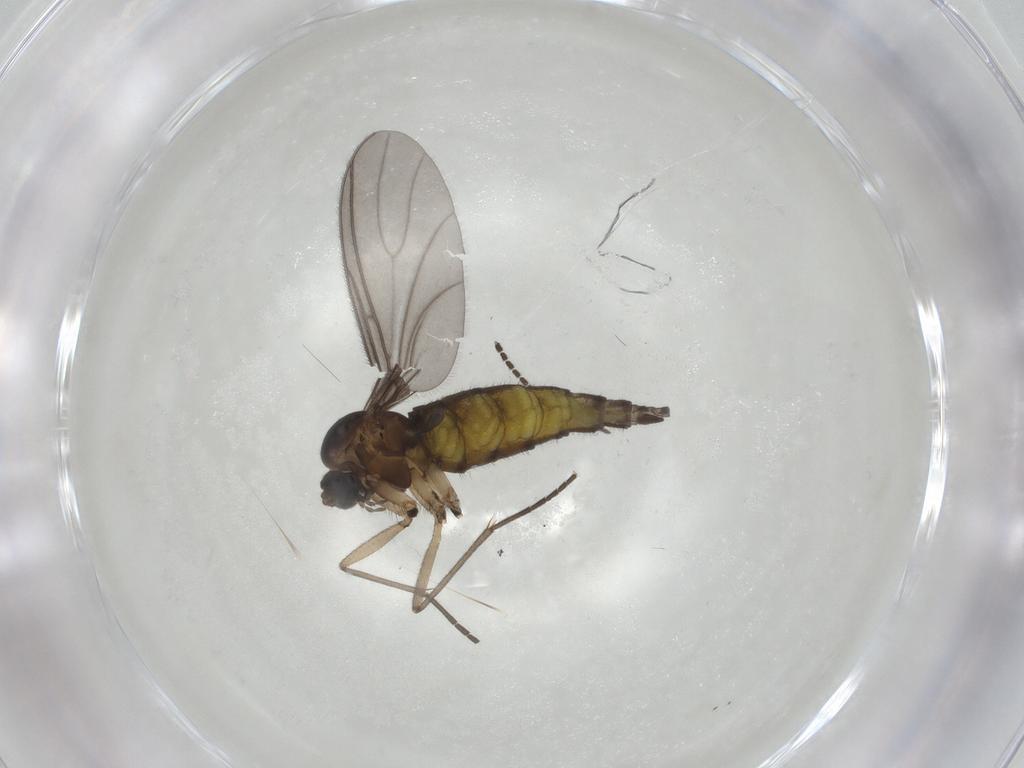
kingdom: Animalia
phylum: Arthropoda
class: Insecta
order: Diptera
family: Sciaridae
